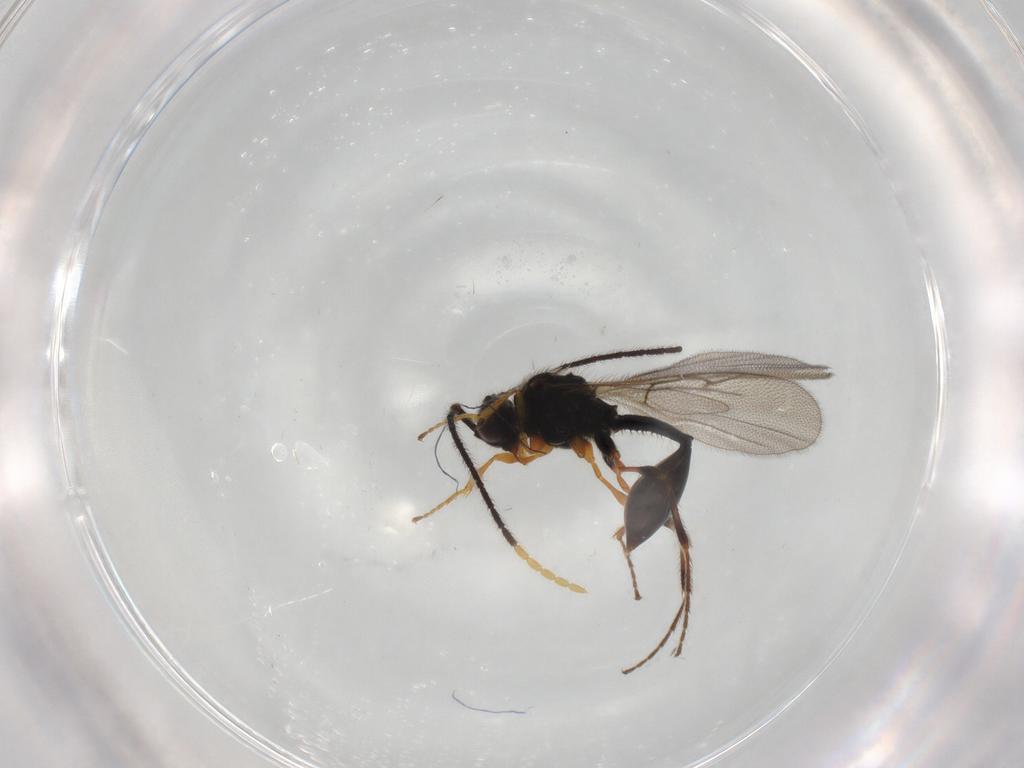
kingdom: Animalia
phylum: Arthropoda
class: Insecta
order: Hymenoptera
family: Diapriidae
